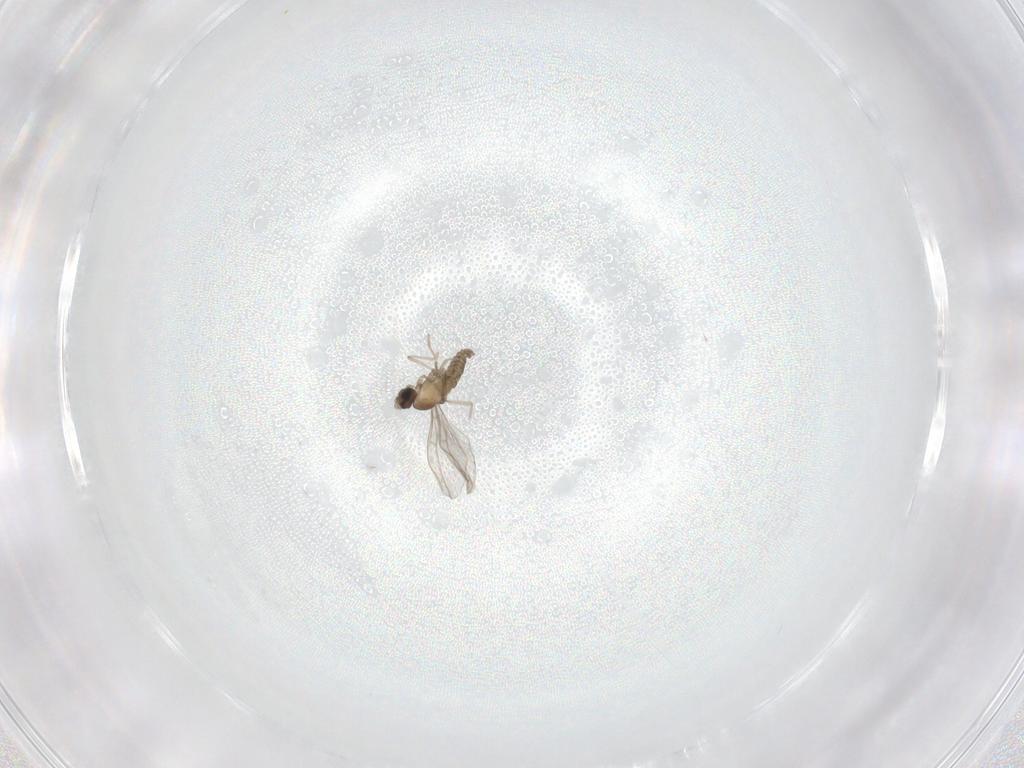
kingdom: Animalia
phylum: Arthropoda
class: Insecta
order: Diptera
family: Cecidomyiidae
